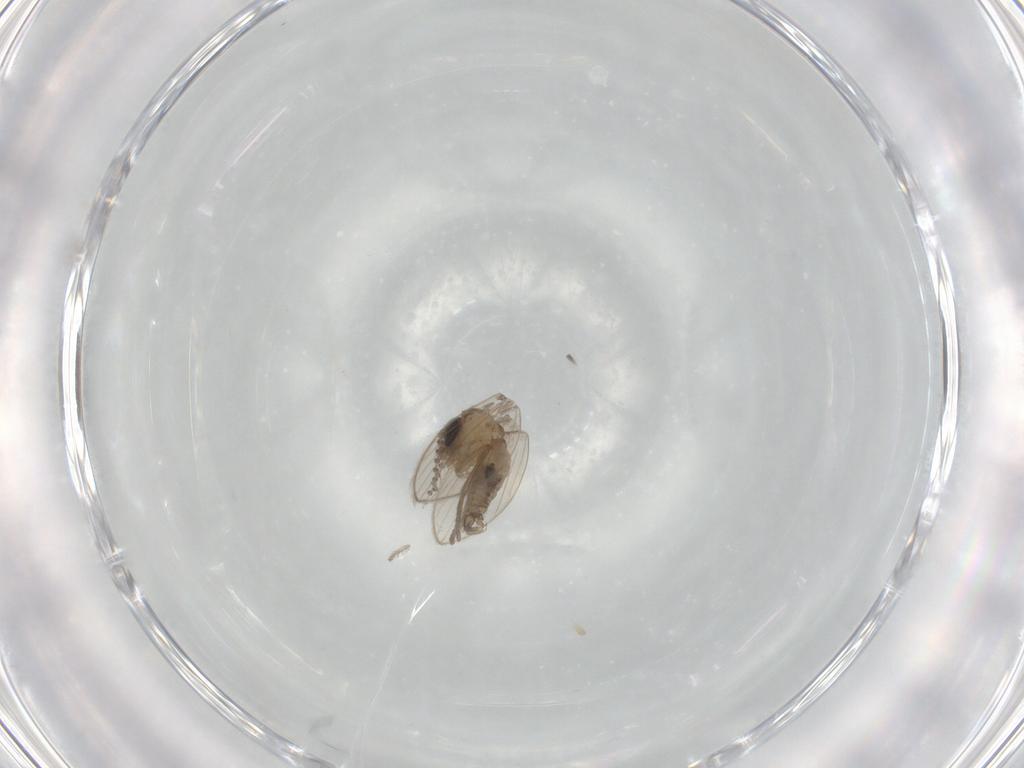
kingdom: Animalia
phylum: Arthropoda
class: Insecta
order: Diptera
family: Psychodidae
